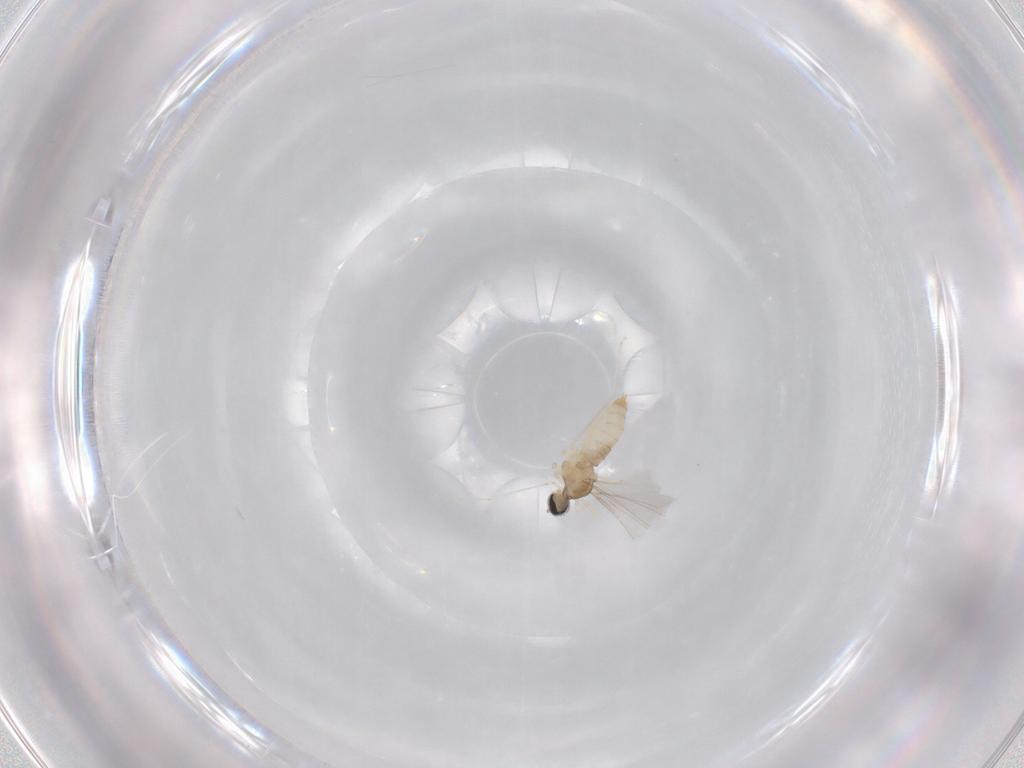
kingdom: Animalia
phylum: Arthropoda
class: Insecta
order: Diptera
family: Cecidomyiidae
